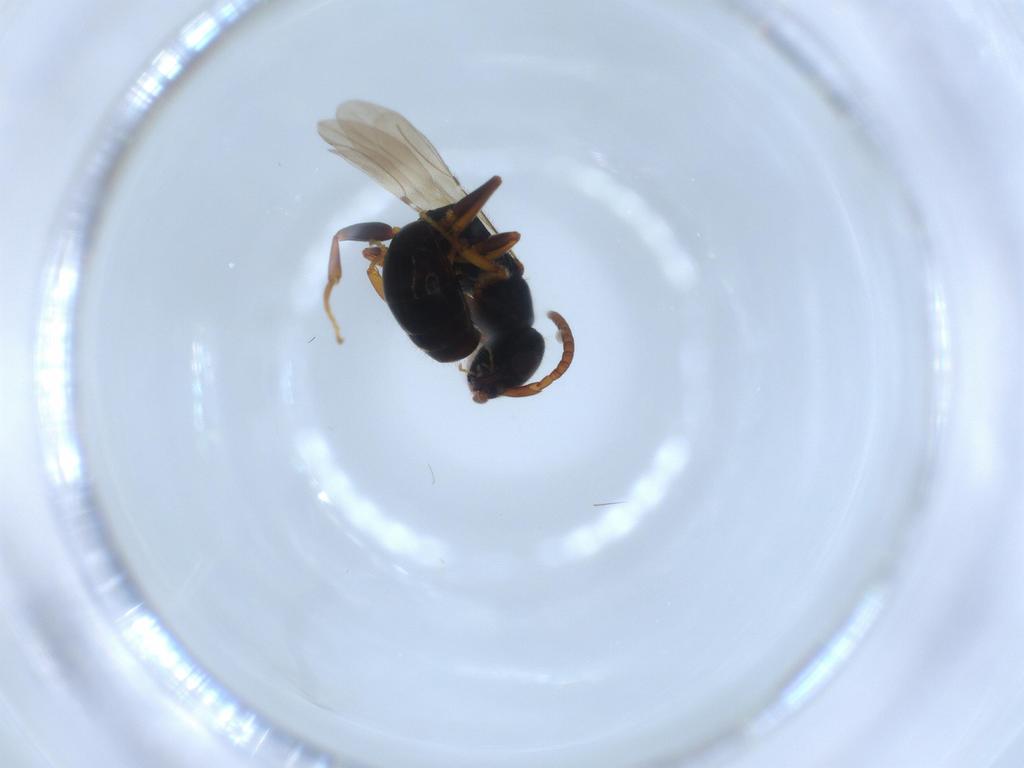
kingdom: Animalia
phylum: Arthropoda
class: Insecta
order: Hymenoptera
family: Bethylidae
